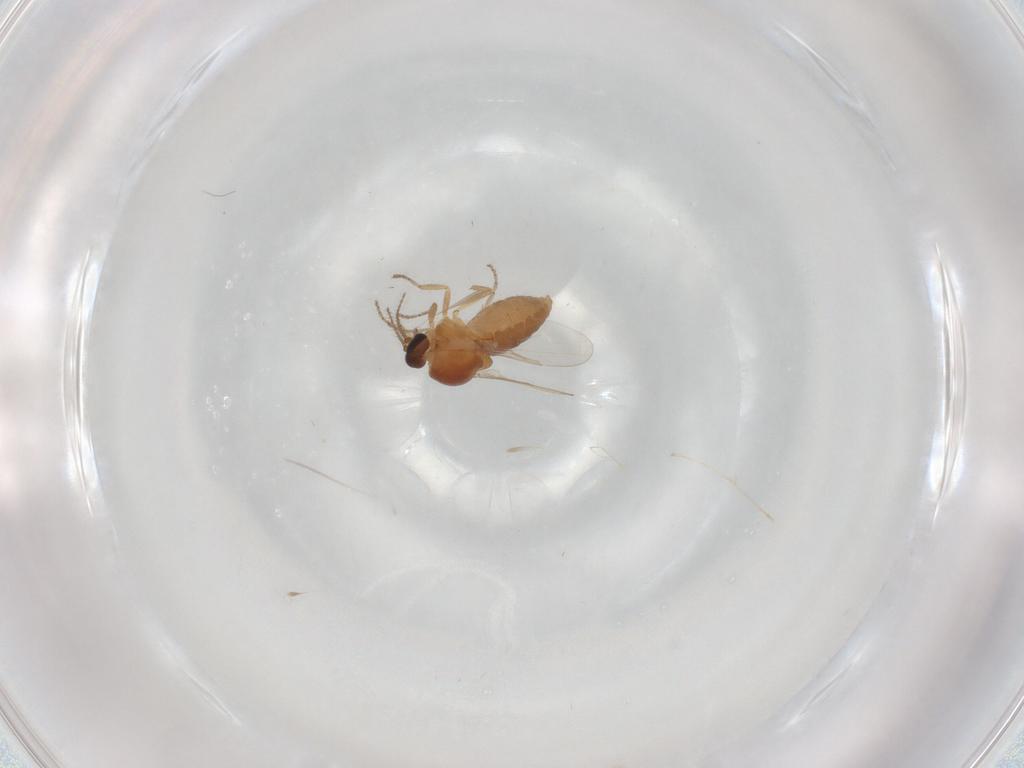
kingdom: Animalia
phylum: Arthropoda
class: Insecta
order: Diptera
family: Ceratopogonidae
